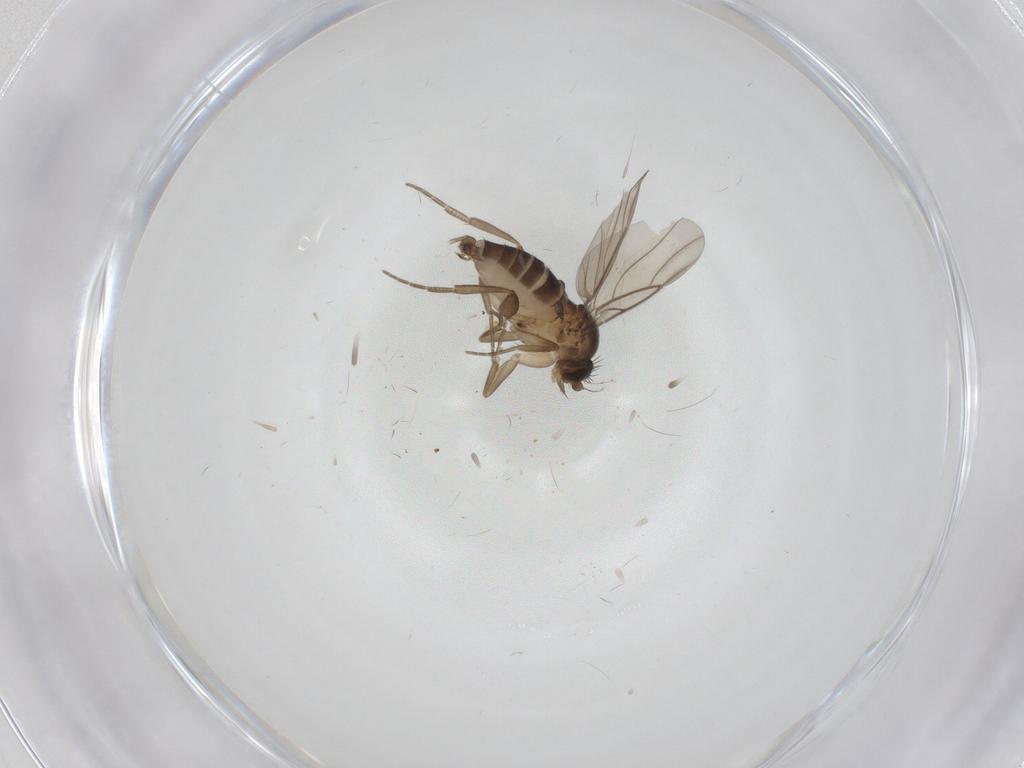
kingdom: Animalia
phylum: Arthropoda
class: Insecta
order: Diptera
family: Phoridae
